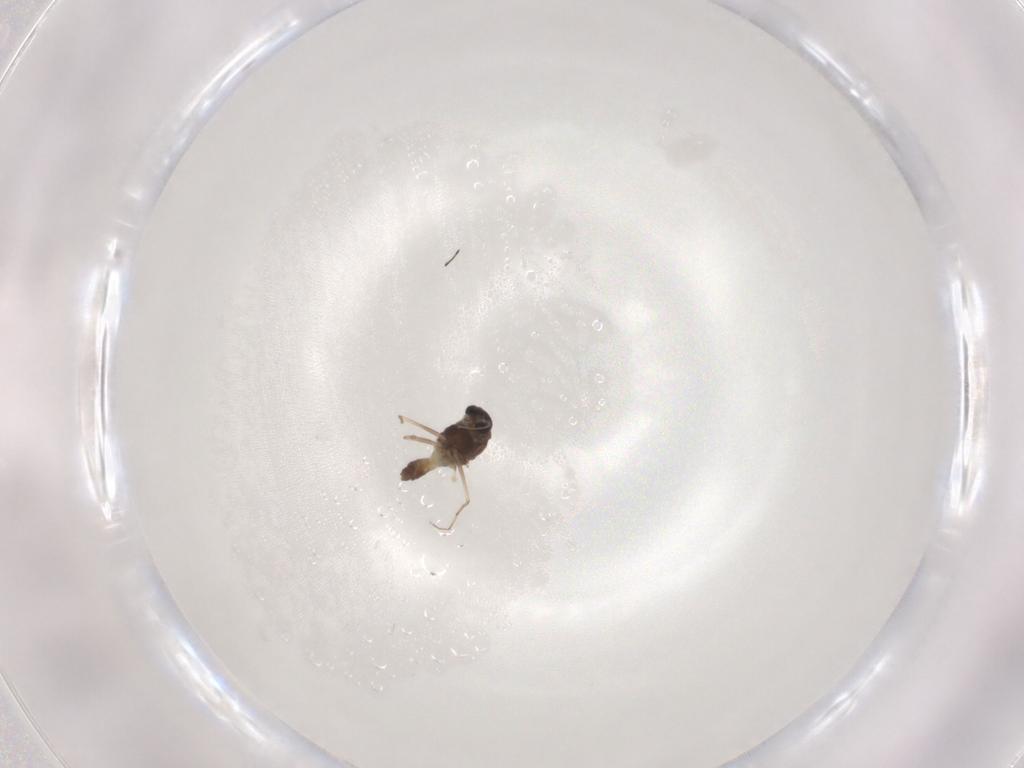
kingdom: Animalia
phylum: Arthropoda
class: Insecta
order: Diptera
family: Chironomidae
